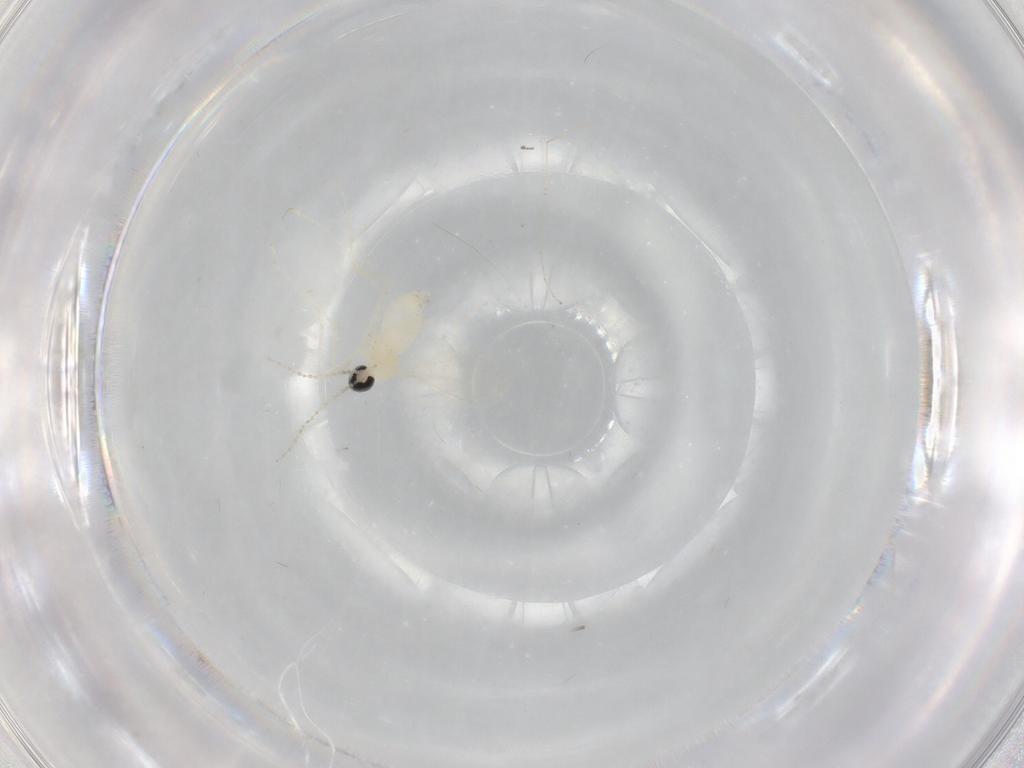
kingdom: Animalia
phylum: Arthropoda
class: Insecta
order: Diptera
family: Cecidomyiidae
